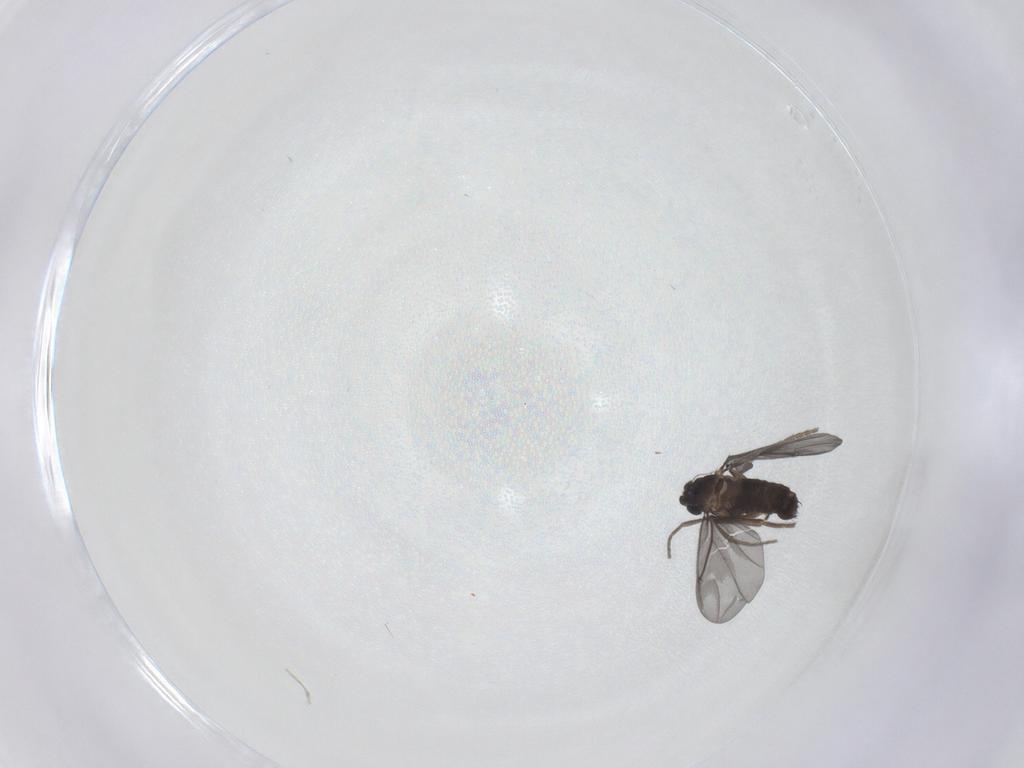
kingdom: Animalia
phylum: Arthropoda
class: Insecta
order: Diptera
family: Phoridae
